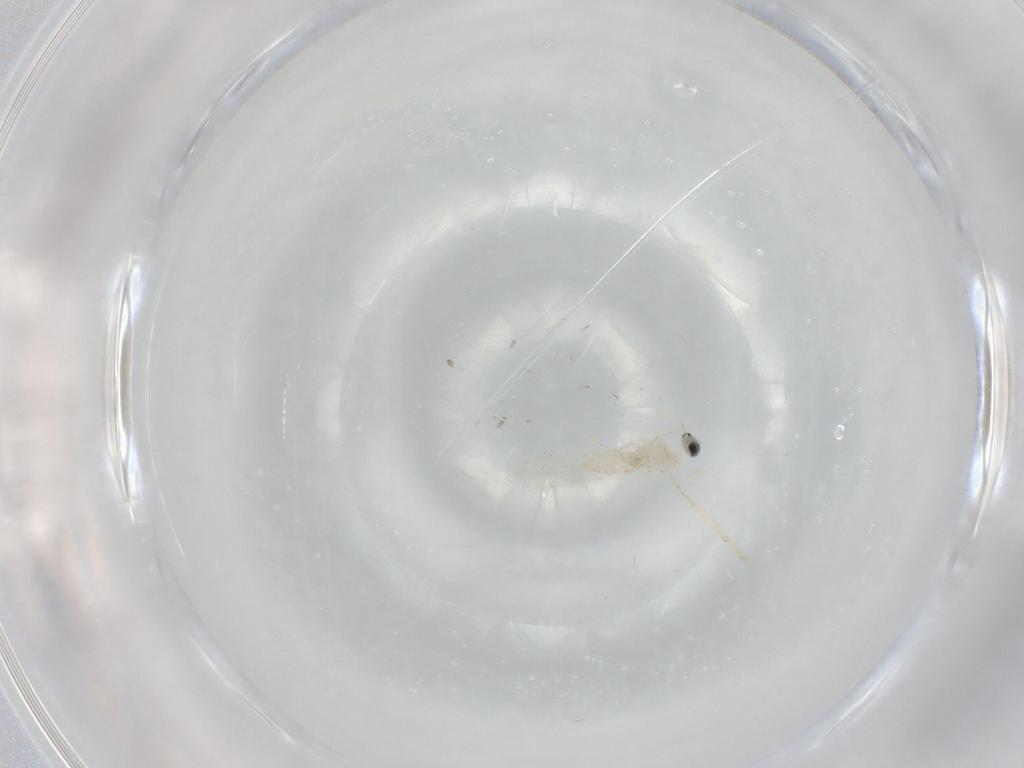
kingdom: Animalia
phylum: Arthropoda
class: Insecta
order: Diptera
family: Cecidomyiidae
